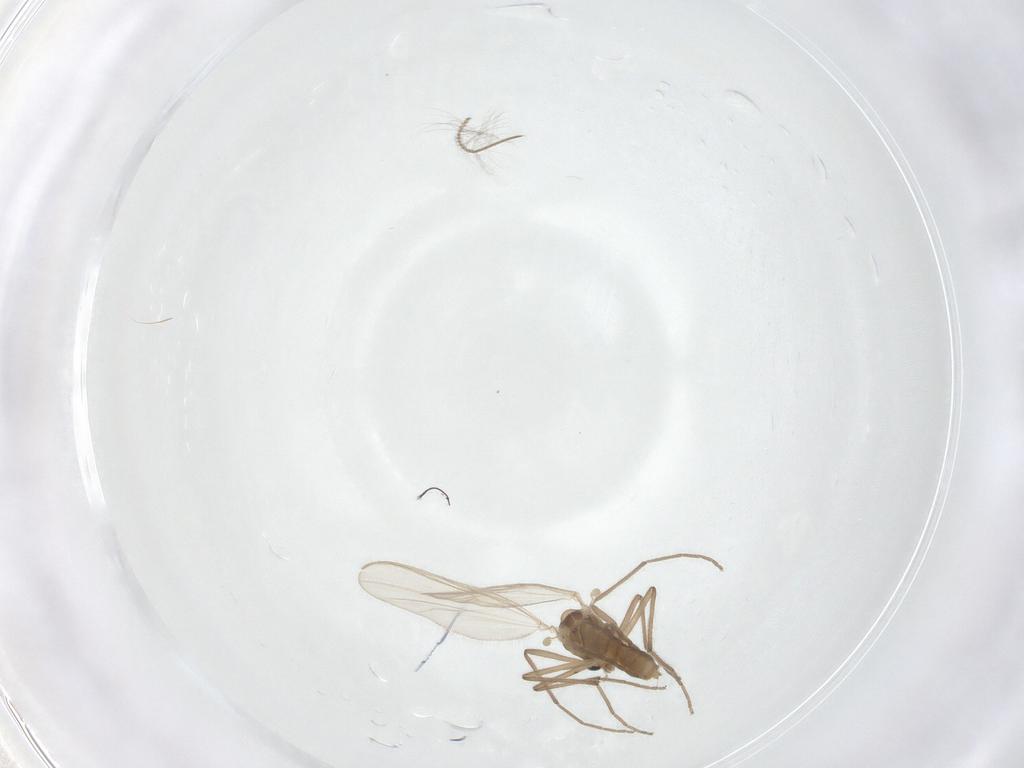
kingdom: Animalia
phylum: Arthropoda
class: Insecta
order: Diptera
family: Chironomidae
